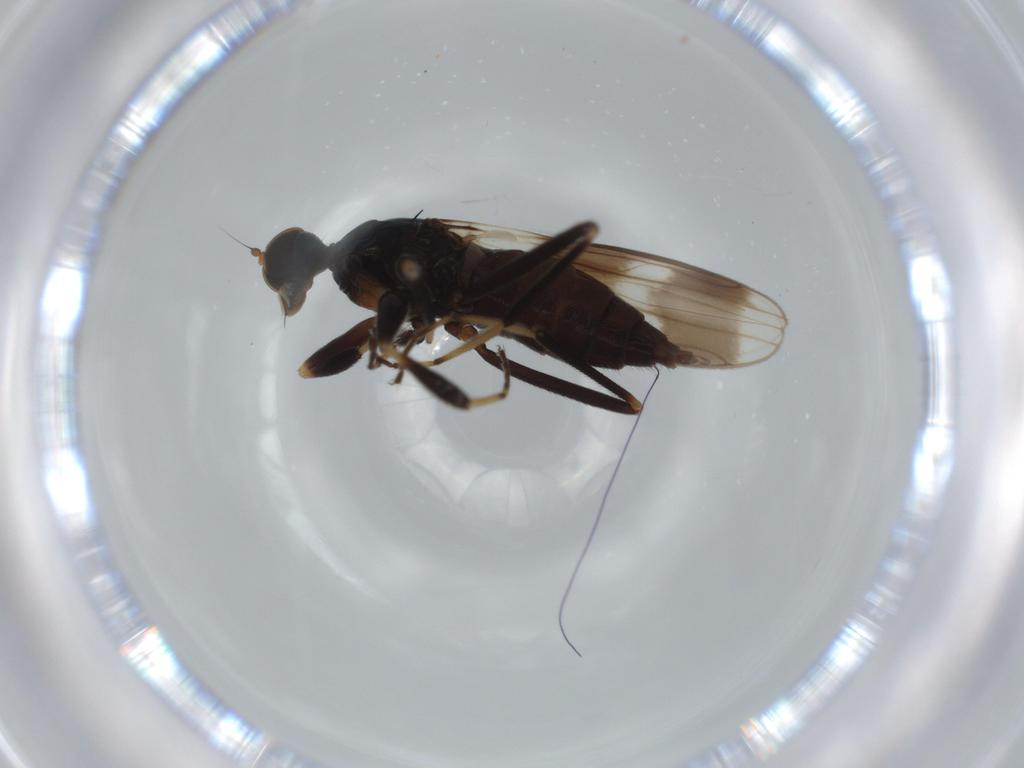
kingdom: Animalia
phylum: Arthropoda
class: Insecta
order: Diptera
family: Hybotidae
